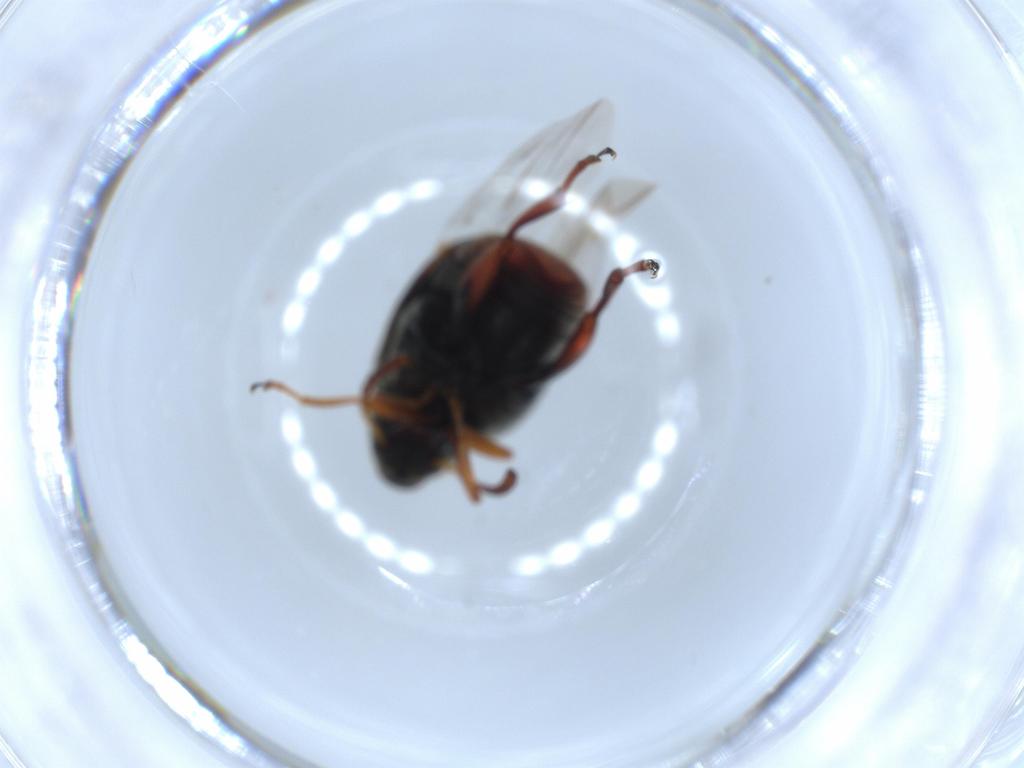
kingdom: Animalia
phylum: Arthropoda
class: Insecta
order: Coleoptera
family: Chrysomelidae
